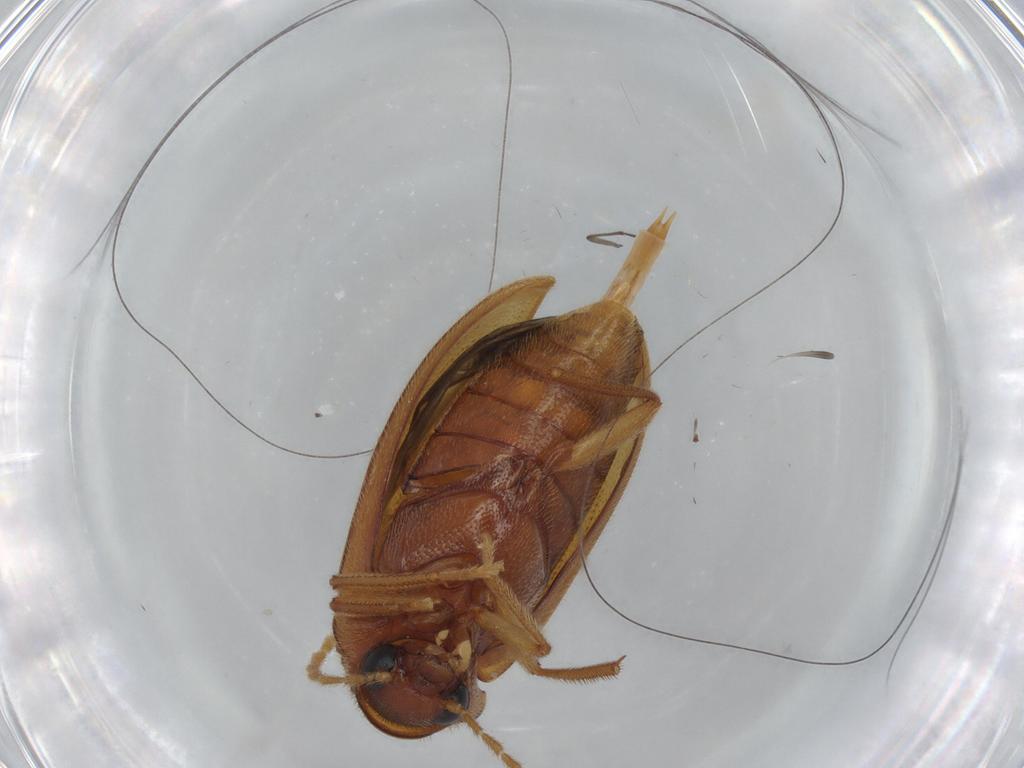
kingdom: Animalia
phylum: Arthropoda
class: Insecta
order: Coleoptera
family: Ptilodactylidae
